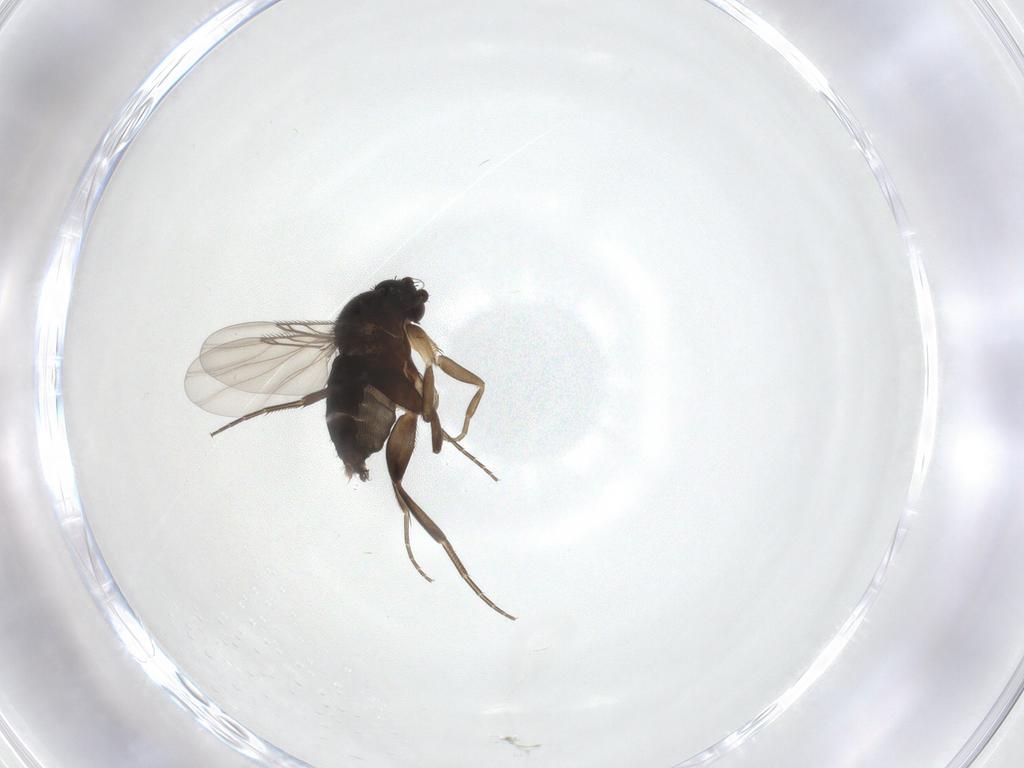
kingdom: Animalia
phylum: Arthropoda
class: Insecta
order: Diptera
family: Phoridae
